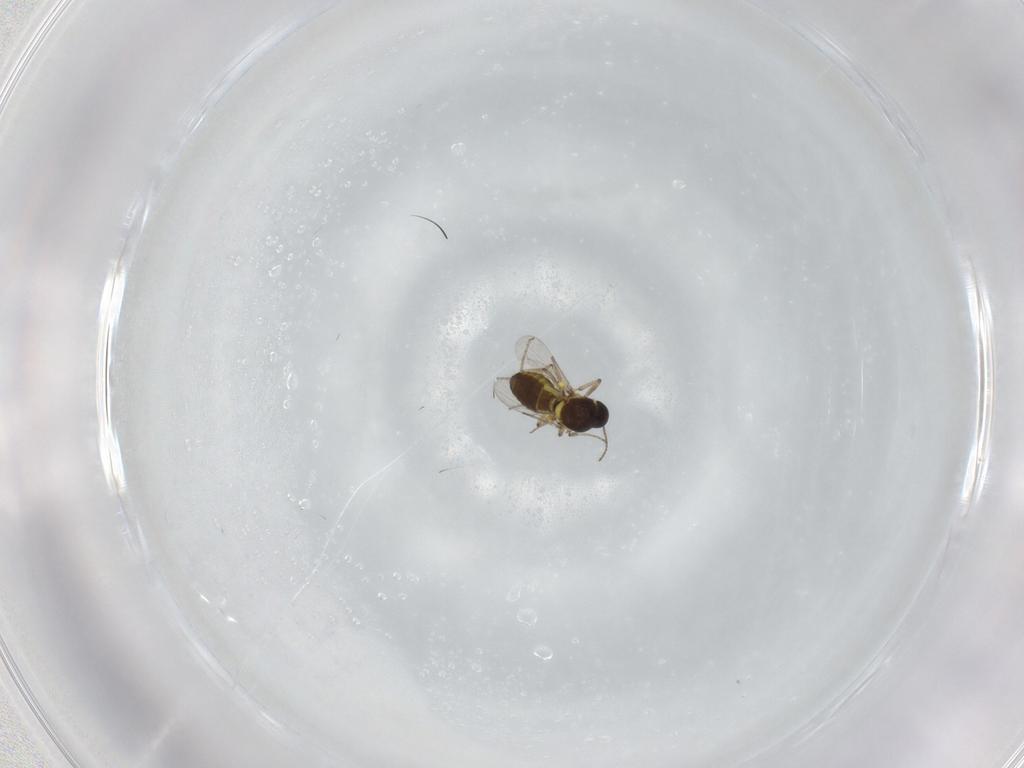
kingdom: Animalia
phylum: Arthropoda
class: Insecta
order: Diptera
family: Ceratopogonidae
